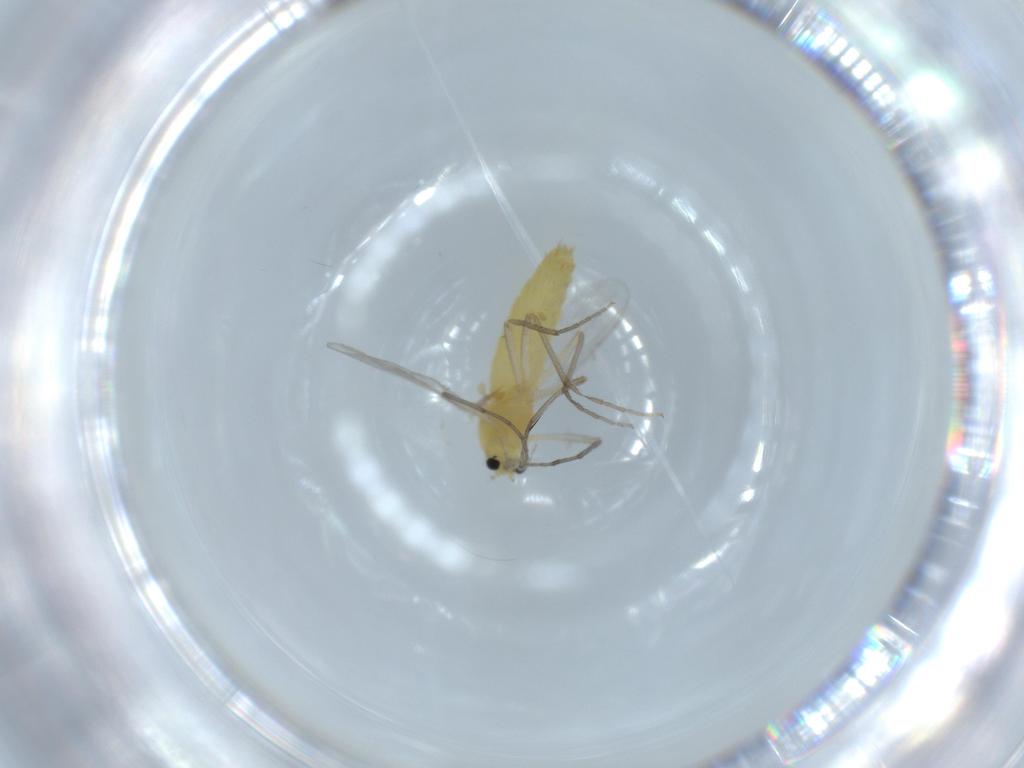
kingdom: Animalia
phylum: Arthropoda
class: Insecta
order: Diptera
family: Chironomidae
